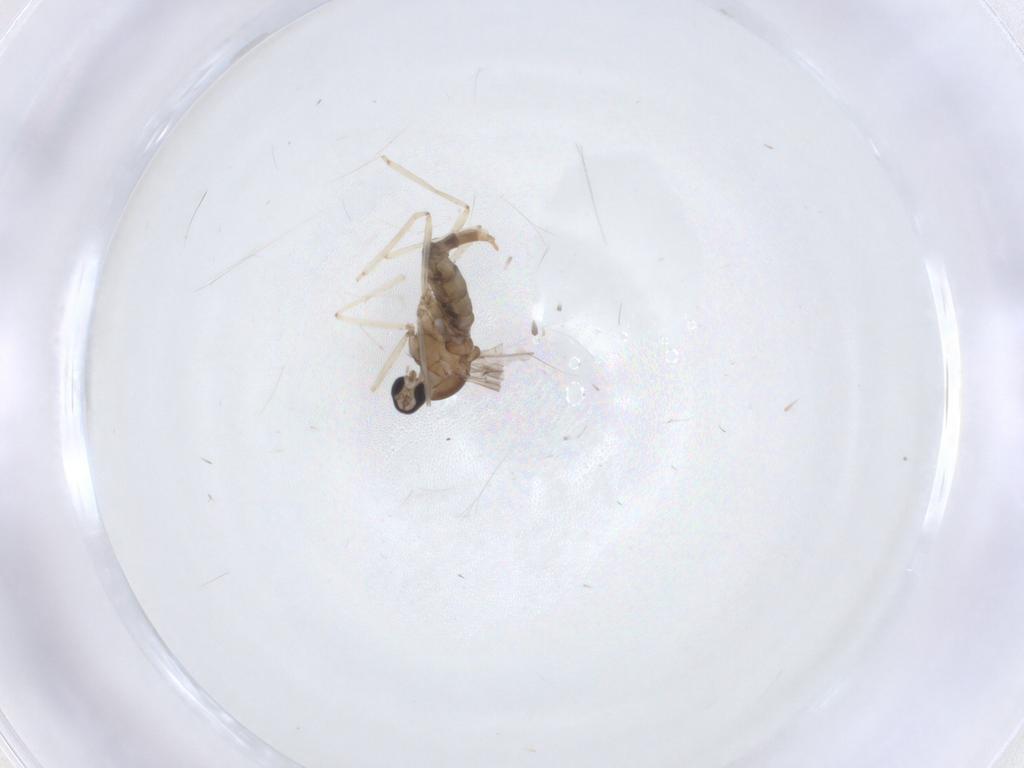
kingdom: Animalia
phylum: Arthropoda
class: Insecta
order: Diptera
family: Cecidomyiidae
